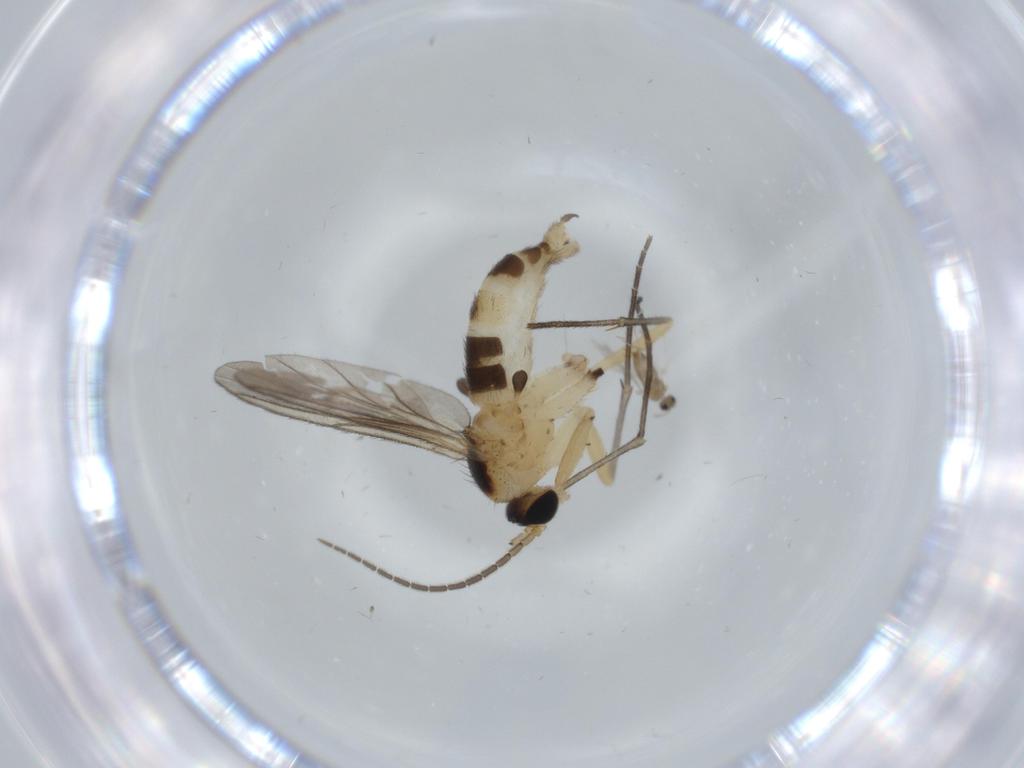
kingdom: Animalia
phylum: Arthropoda
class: Insecta
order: Diptera
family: Sciaridae
